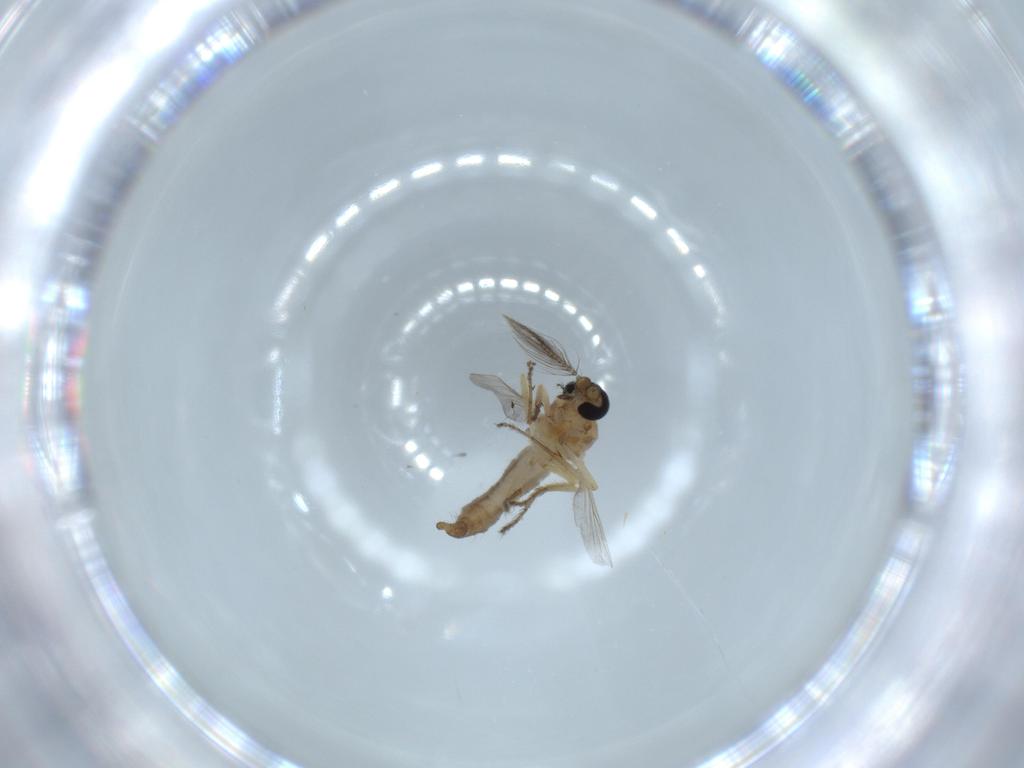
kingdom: Animalia
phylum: Arthropoda
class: Insecta
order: Diptera
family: Ceratopogonidae
